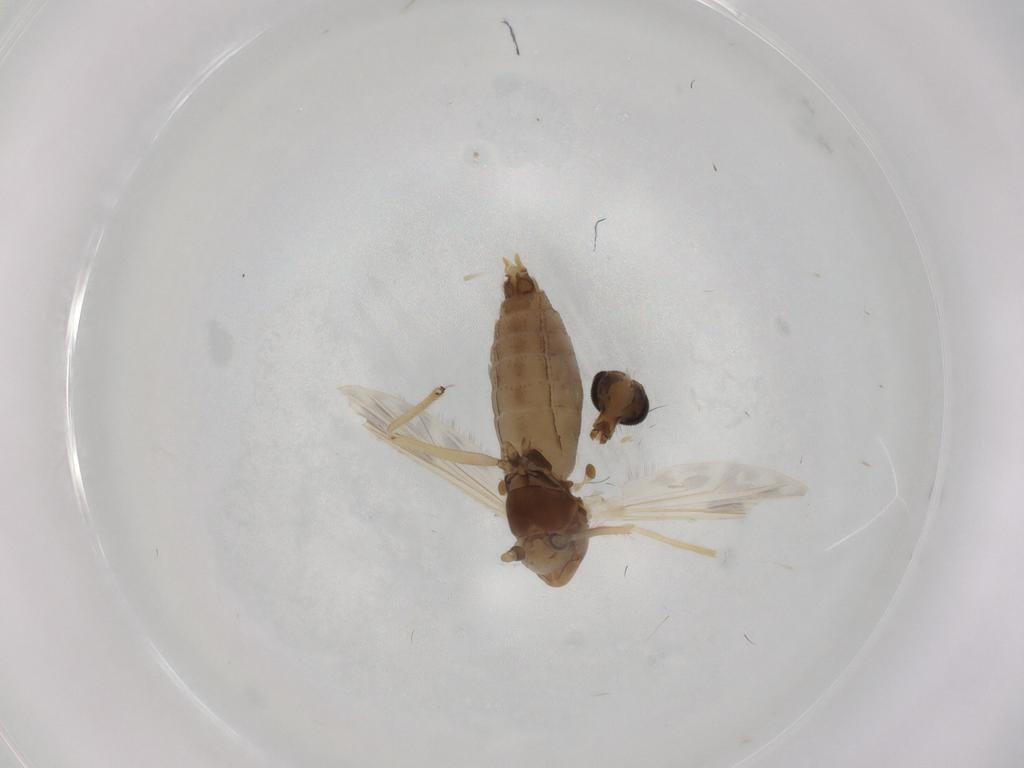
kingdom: Animalia
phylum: Arthropoda
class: Insecta
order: Diptera
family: Chironomidae
